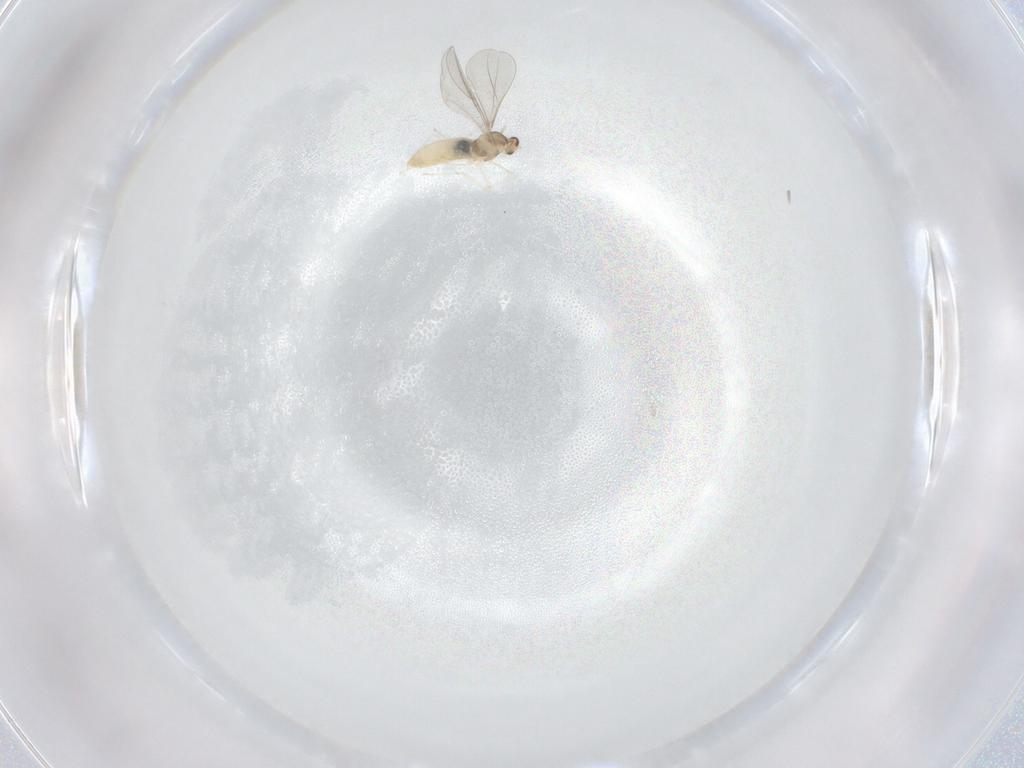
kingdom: Animalia
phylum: Arthropoda
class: Insecta
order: Diptera
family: Cecidomyiidae
